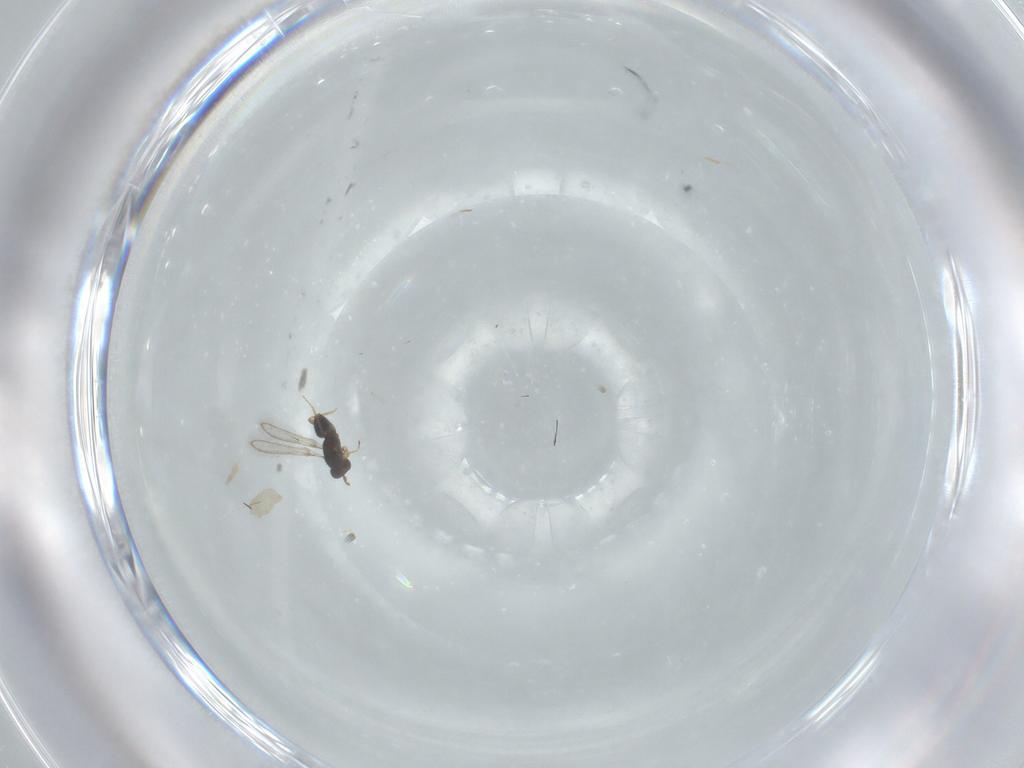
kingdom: Animalia
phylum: Arthropoda
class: Insecta
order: Hymenoptera
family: Mymaridae
